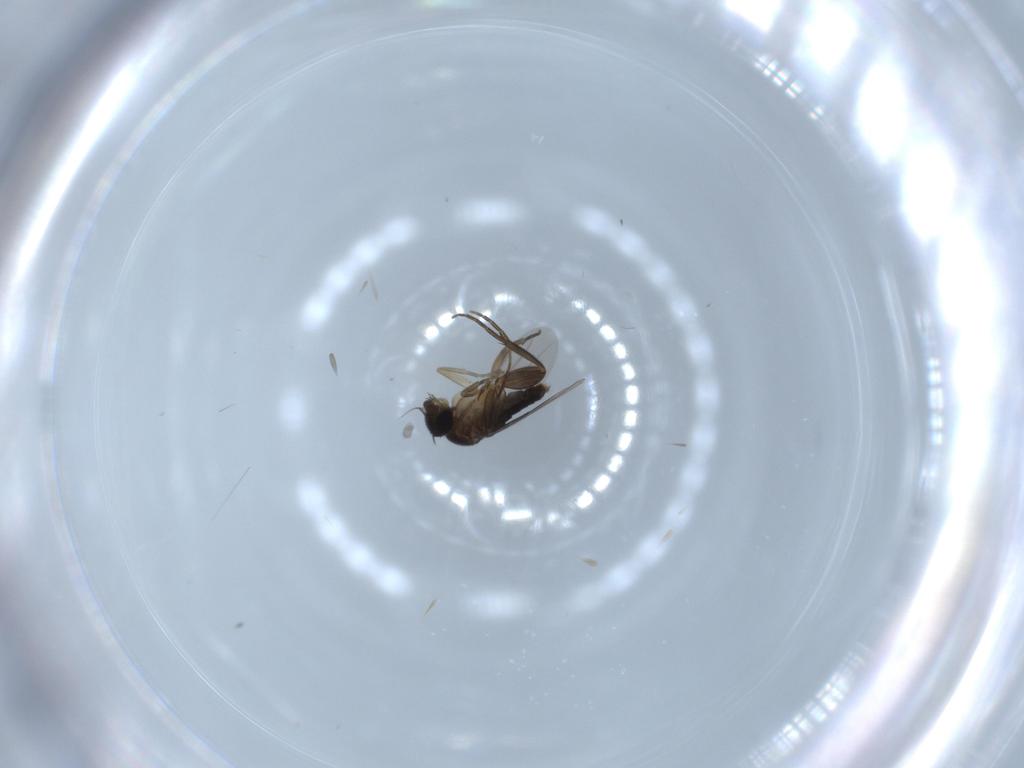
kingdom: Animalia
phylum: Arthropoda
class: Insecta
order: Diptera
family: Phoridae
